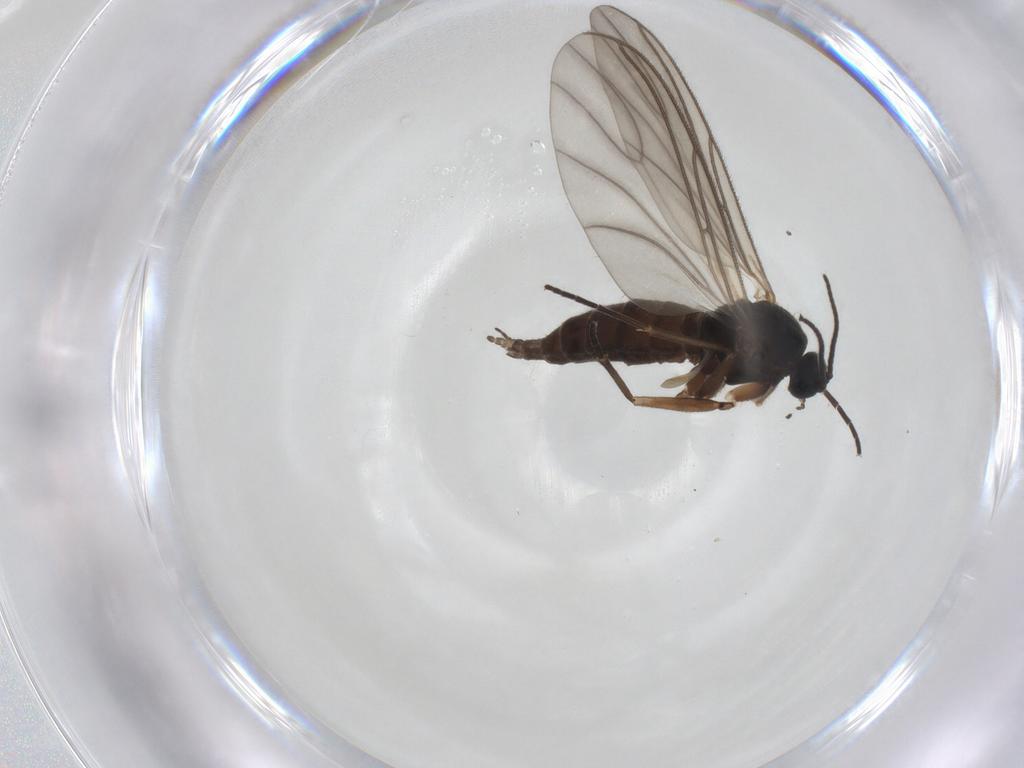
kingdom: Animalia
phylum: Arthropoda
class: Insecta
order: Diptera
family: Sciaridae
